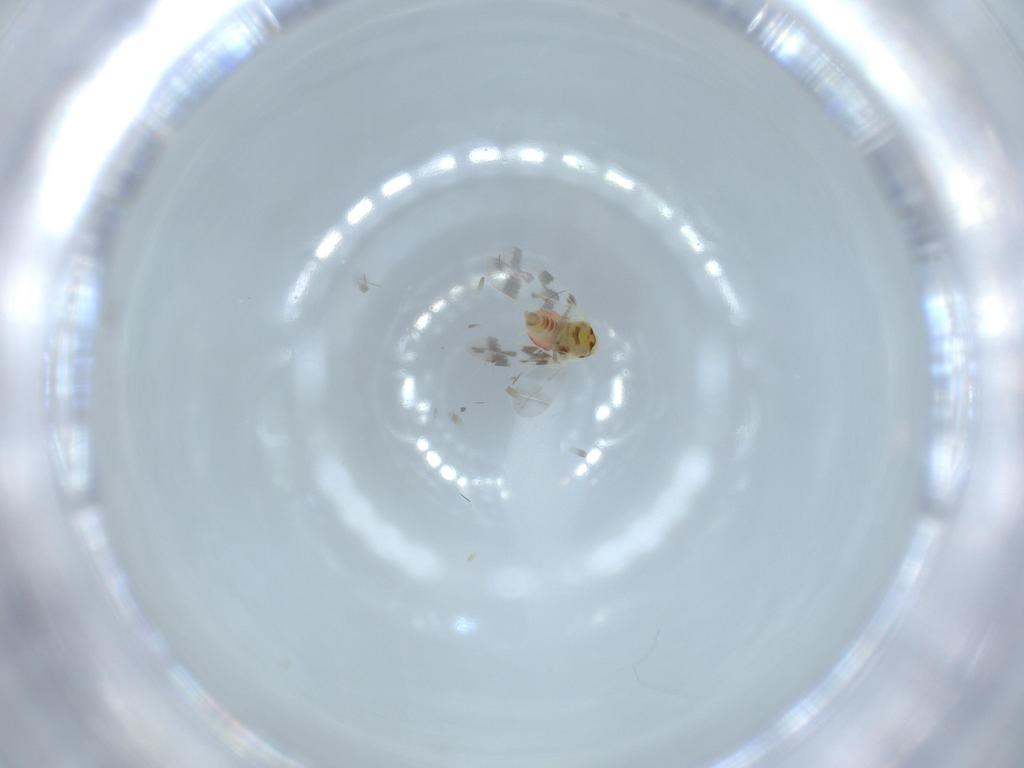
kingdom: Animalia
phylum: Arthropoda
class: Insecta
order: Hemiptera
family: Aleyrodidae
